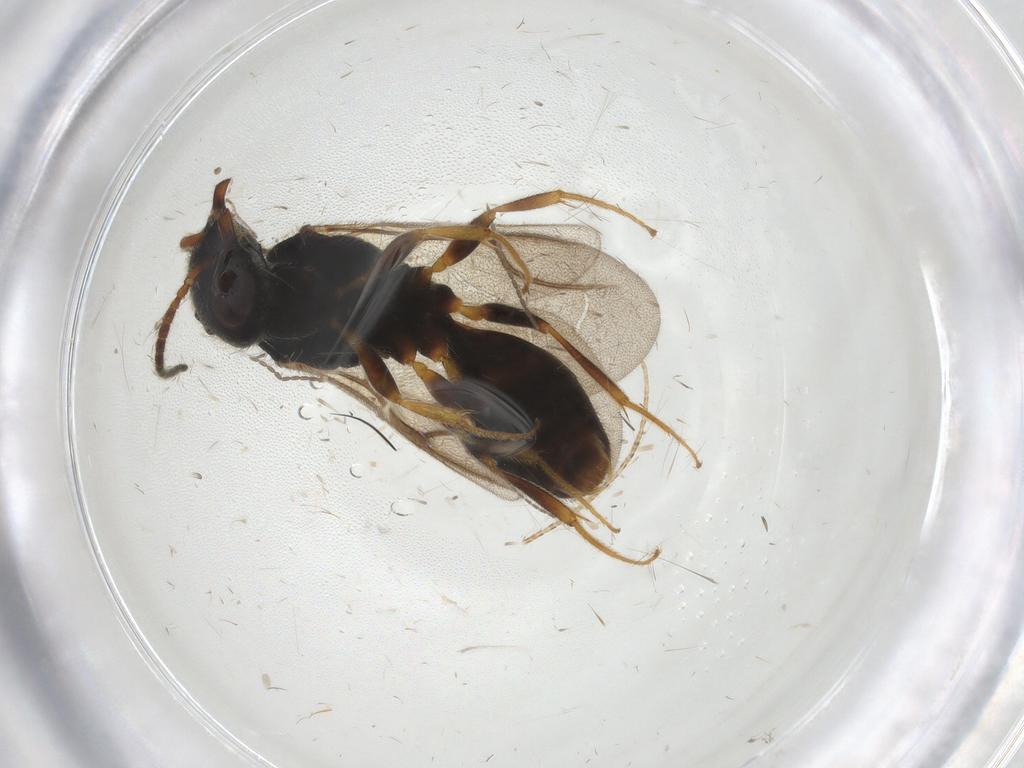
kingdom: Animalia
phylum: Arthropoda
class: Insecta
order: Hymenoptera
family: Bethylidae
